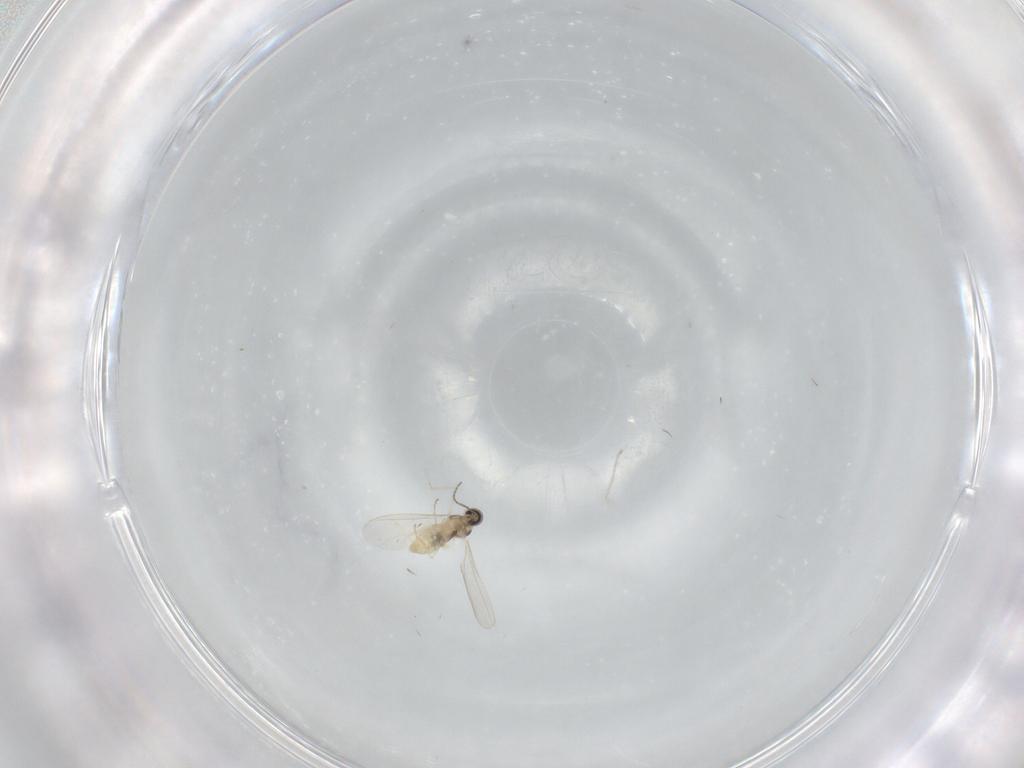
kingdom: Animalia
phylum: Arthropoda
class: Insecta
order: Diptera
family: Cecidomyiidae
